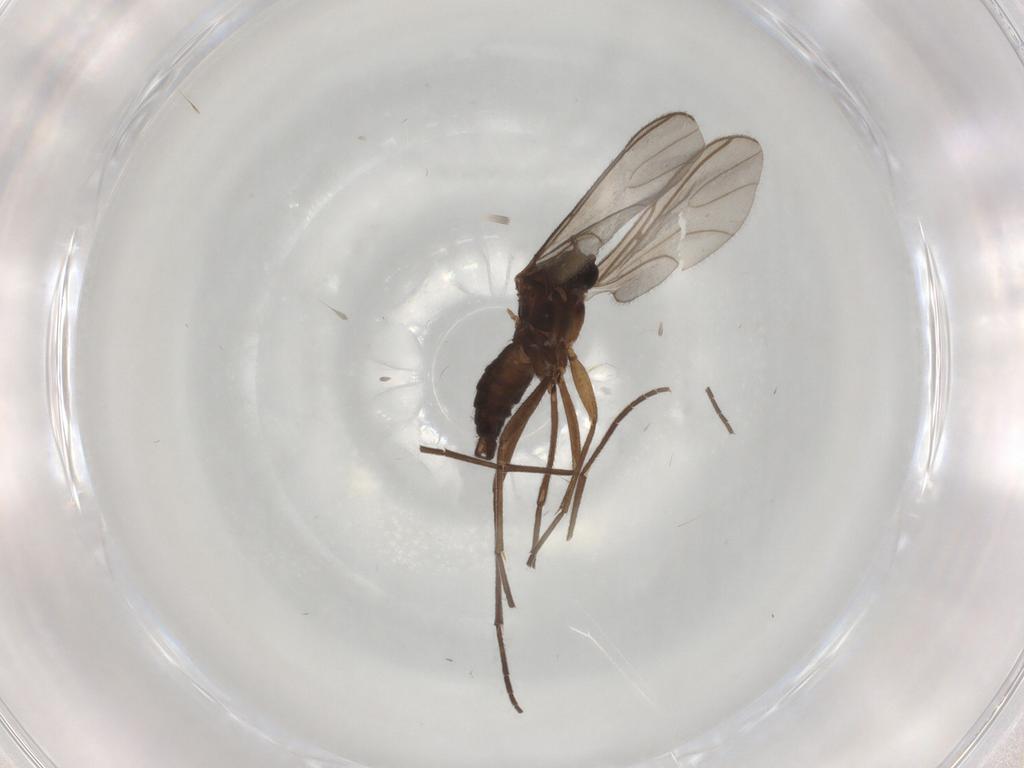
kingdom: Animalia
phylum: Arthropoda
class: Insecta
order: Diptera
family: Sciaridae
